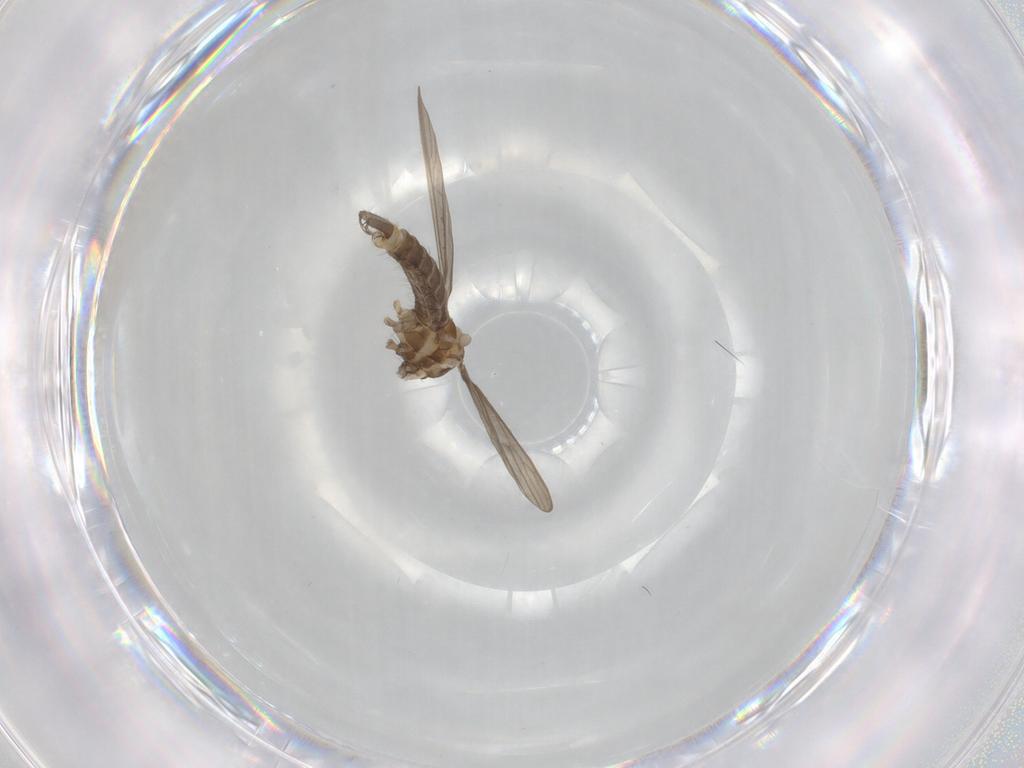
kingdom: Animalia
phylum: Arthropoda
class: Insecta
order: Diptera
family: Limoniidae
